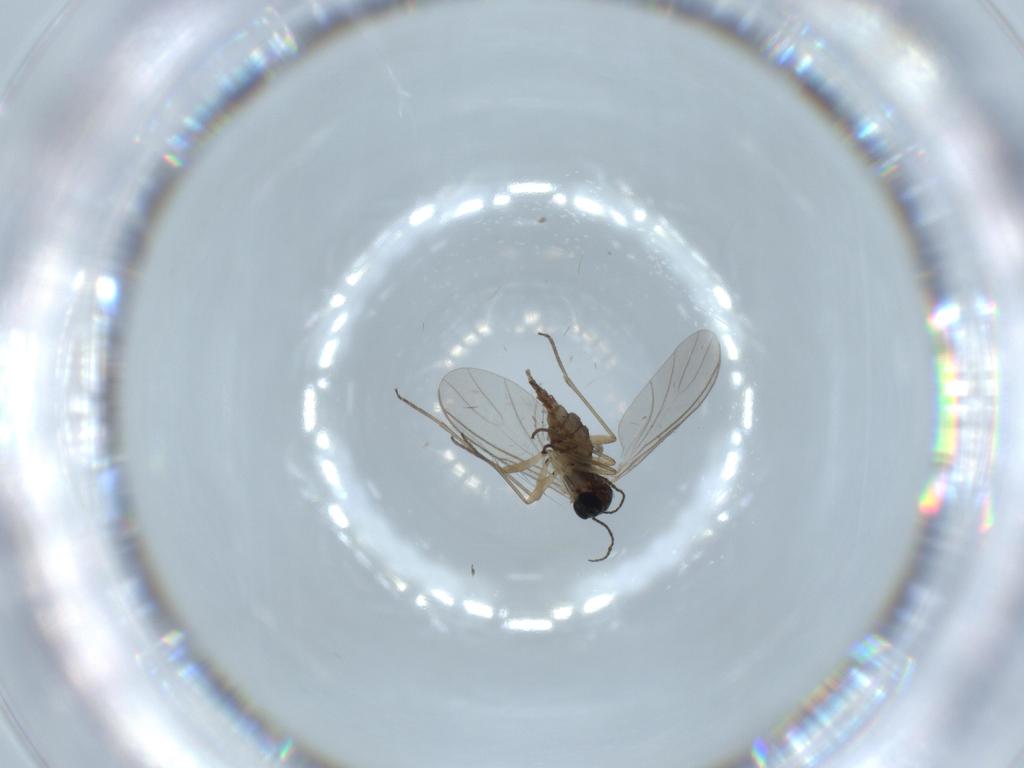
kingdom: Animalia
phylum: Arthropoda
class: Insecta
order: Diptera
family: Sciaridae
